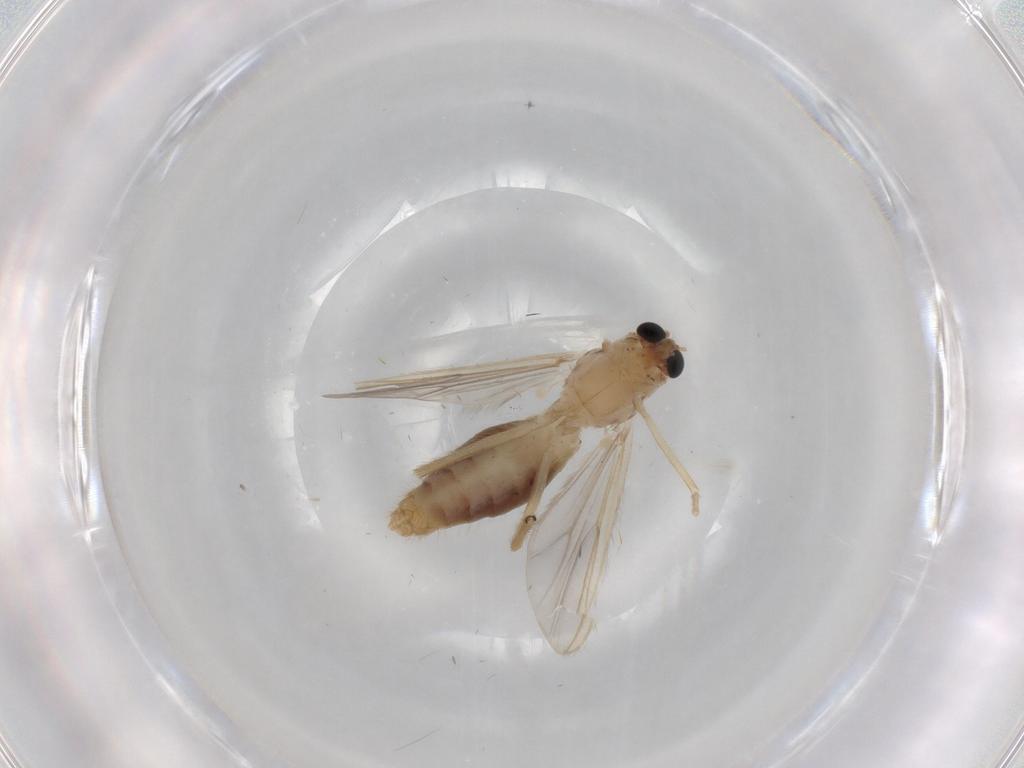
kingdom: Animalia
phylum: Arthropoda
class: Insecta
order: Diptera
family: Chironomidae
